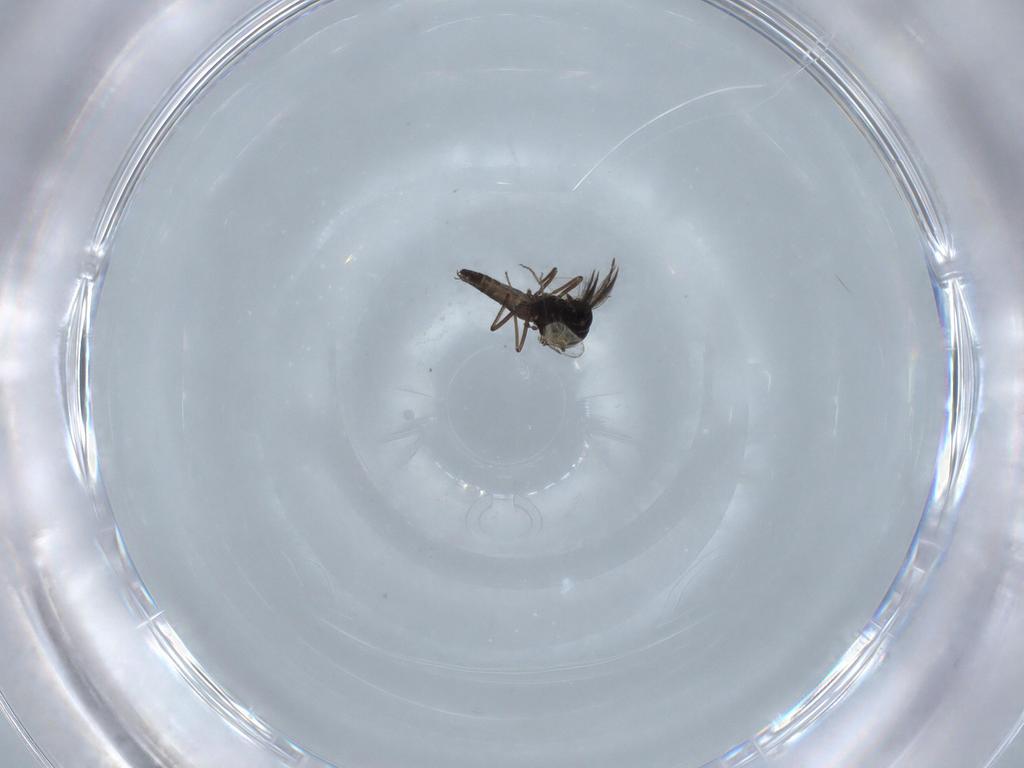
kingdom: Animalia
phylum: Arthropoda
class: Insecta
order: Diptera
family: Ceratopogonidae
